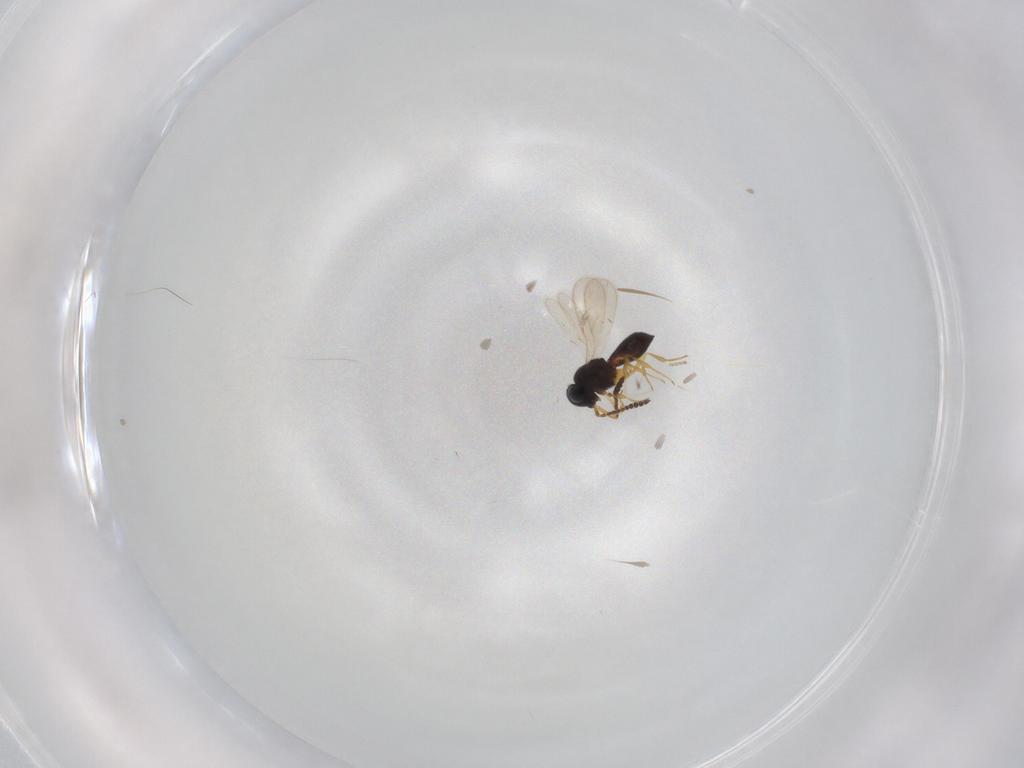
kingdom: Animalia
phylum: Arthropoda
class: Insecta
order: Hymenoptera
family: Scelionidae
